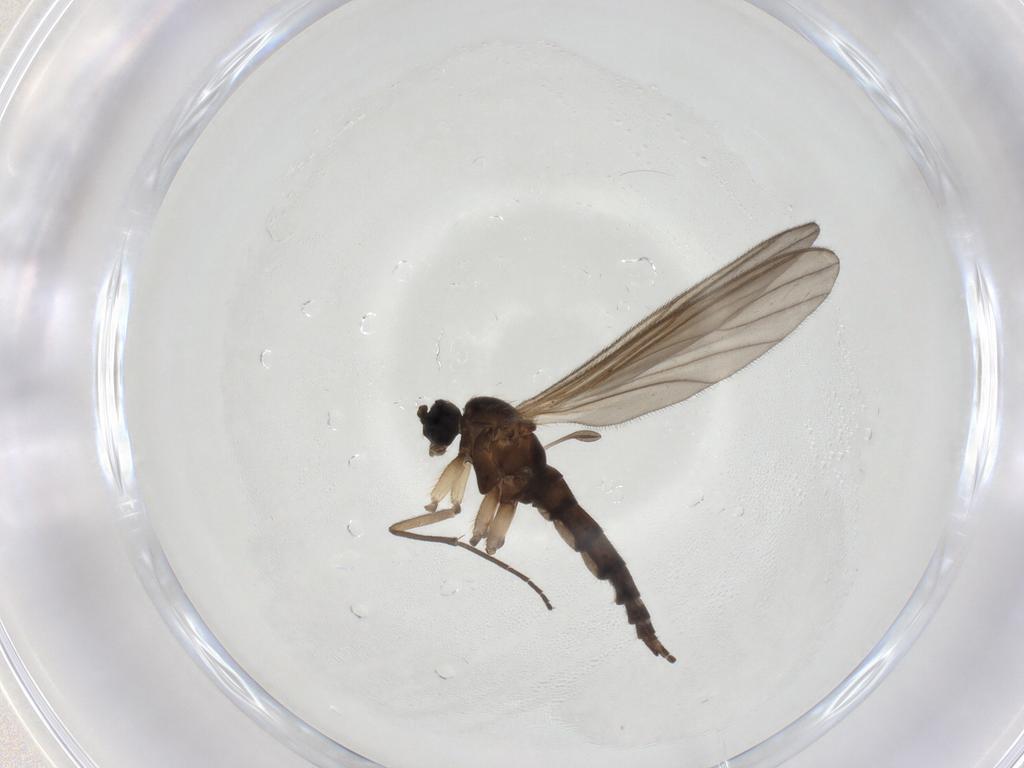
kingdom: Animalia
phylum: Arthropoda
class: Insecta
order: Diptera
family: Sciaridae
